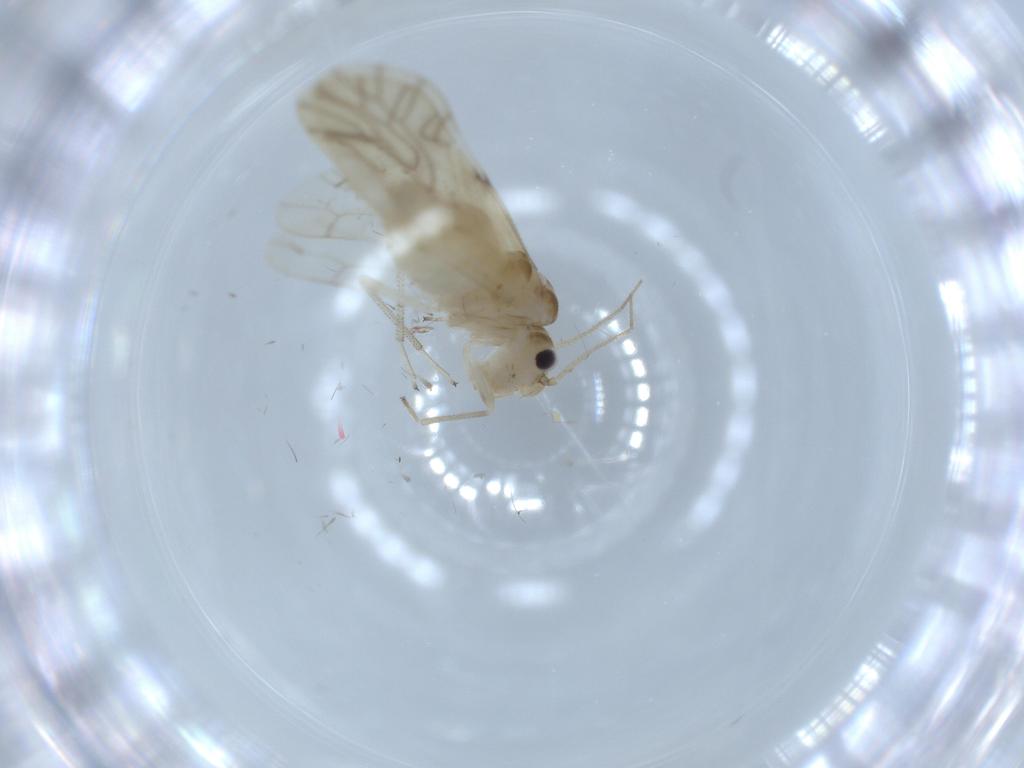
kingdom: Animalia
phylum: Arthropoda
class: Insecta
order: Psocodea
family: Caeciliusidae
